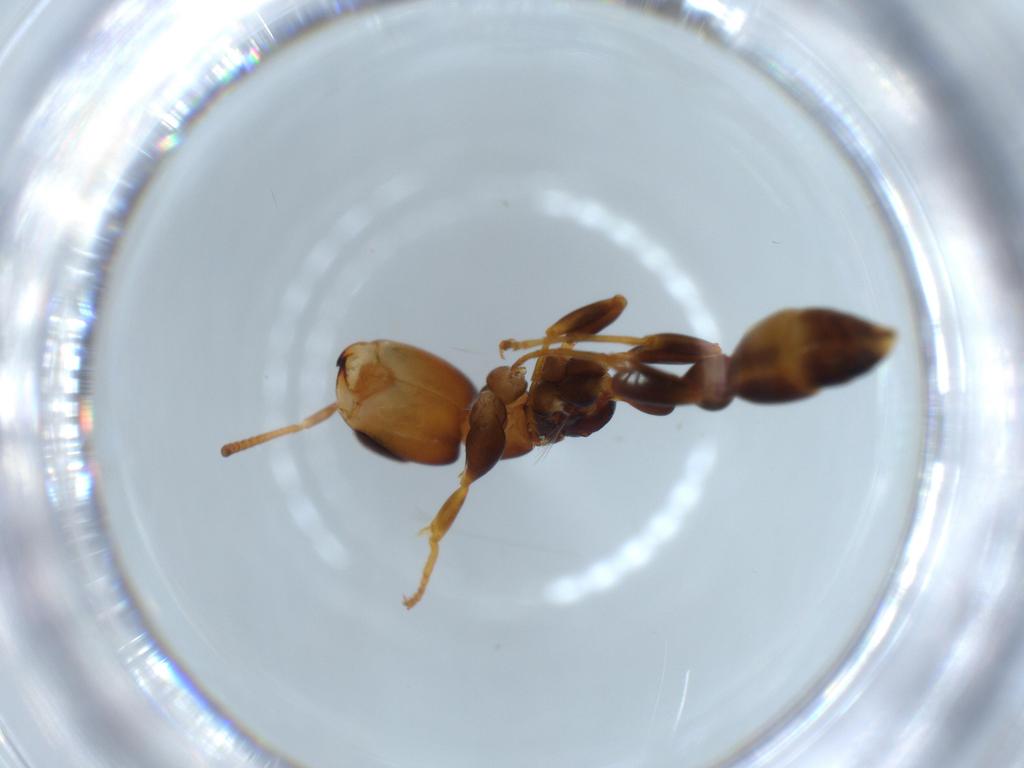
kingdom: Animalia
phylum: Arthropoda
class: Insecta
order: Hymenoptera
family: Formicidae
